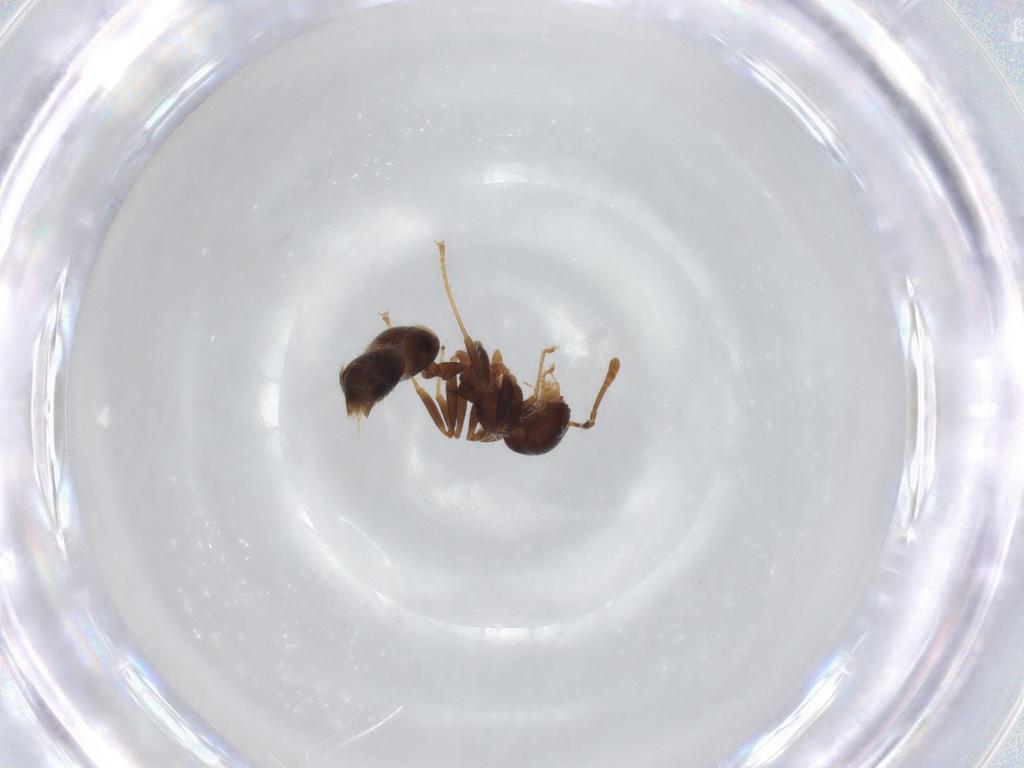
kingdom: Animalia
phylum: Arthropoda
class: Insecta
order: Hymenoptera
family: Formicidae
